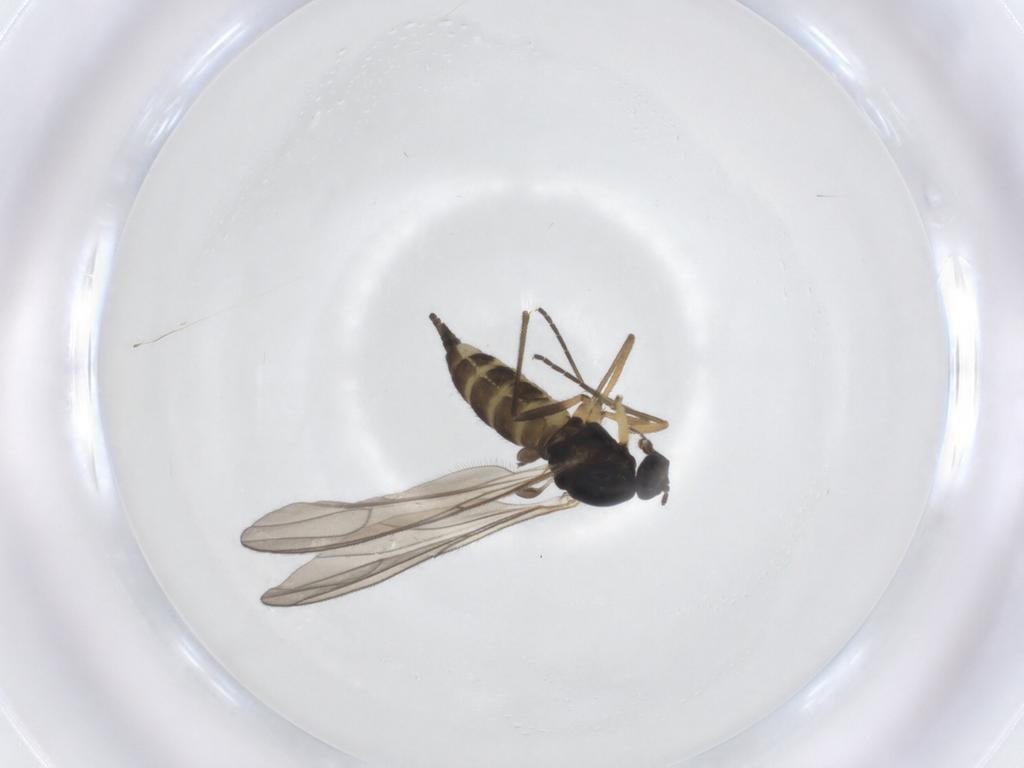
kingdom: Animalia
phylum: Arthropoda
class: Insecta
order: Diptera
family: Sciaridae
